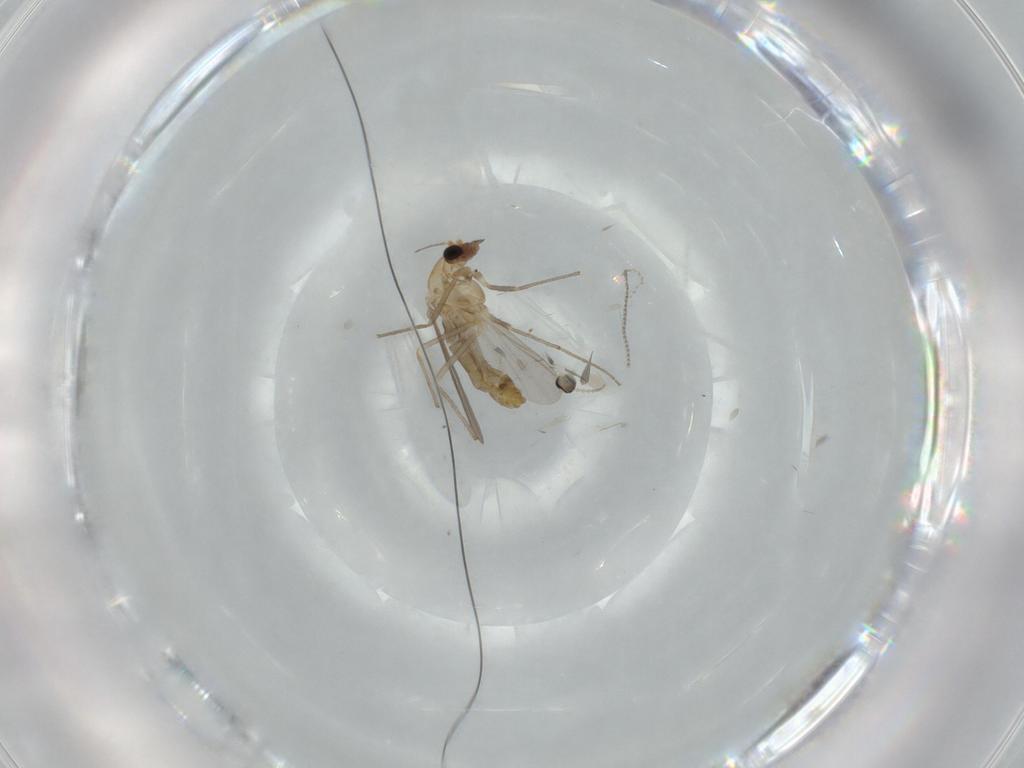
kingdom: Animalia
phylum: Arthropoda
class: Insecta
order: Diptera
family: Chironomidae
